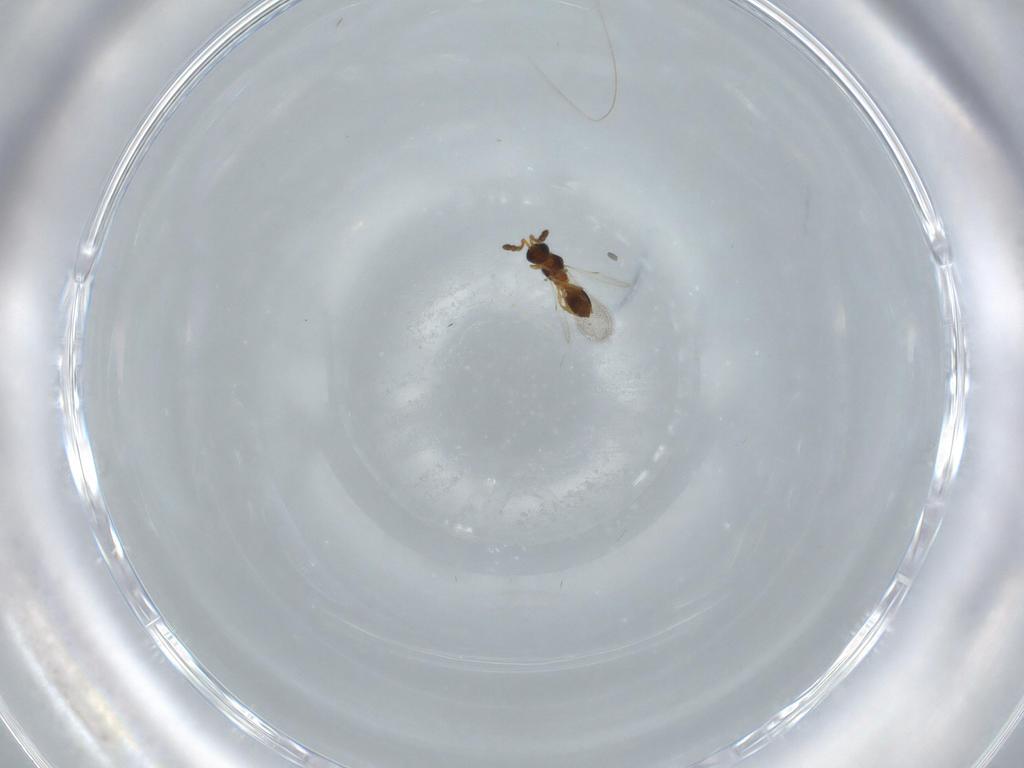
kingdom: Animalia
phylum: Arthropoda
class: Insecta
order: Hymenoptera
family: Diapriidae
